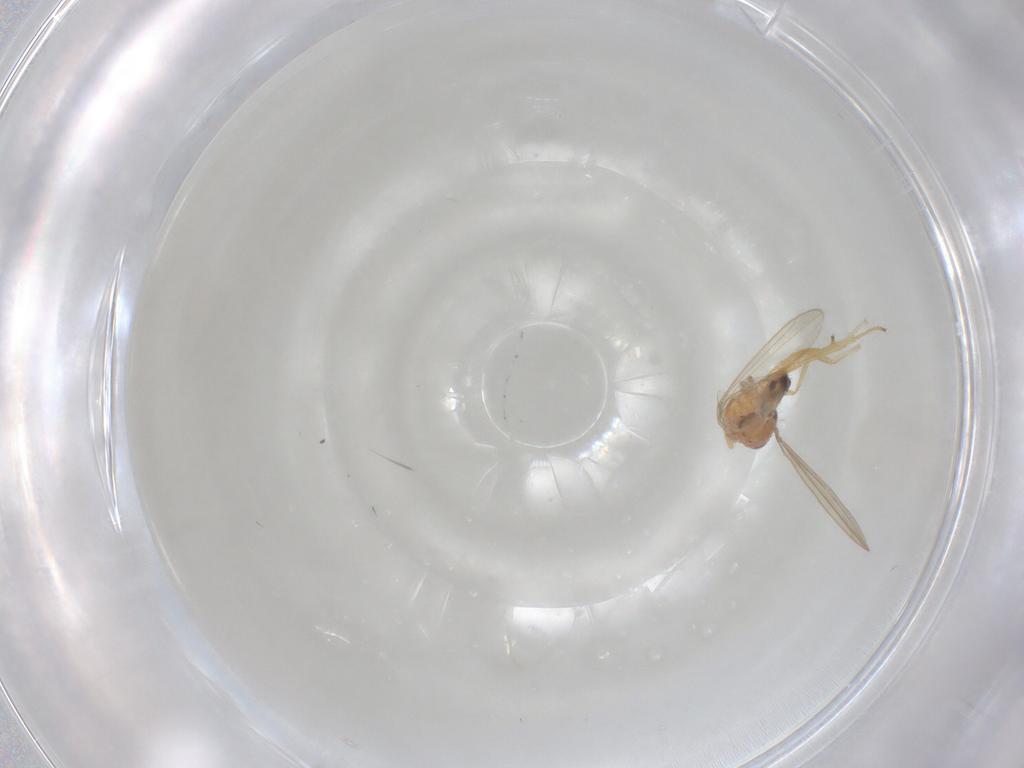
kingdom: Animalia
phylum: Arthropoda
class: Insecta
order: Diptera
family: Periscelididae
